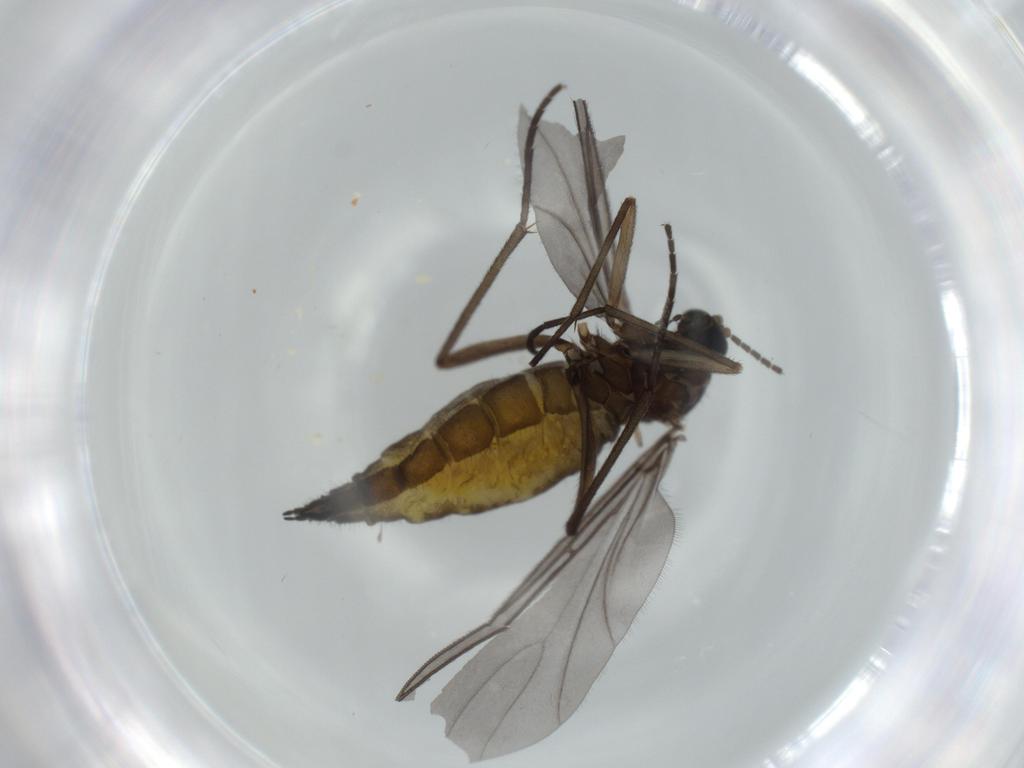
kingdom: Animalia
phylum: Arthropoda
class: Insecta
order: Diptera
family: Sciaridae
